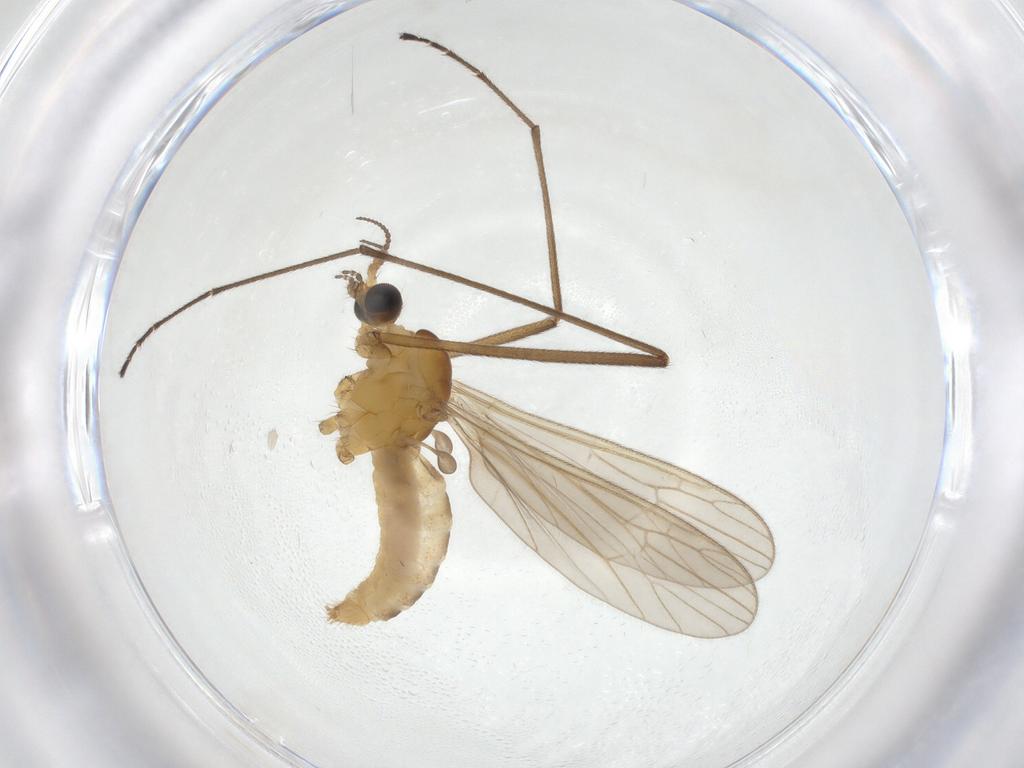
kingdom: Animalia
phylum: Arthropoda
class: Insecta
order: Diptera
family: Limoniidae
